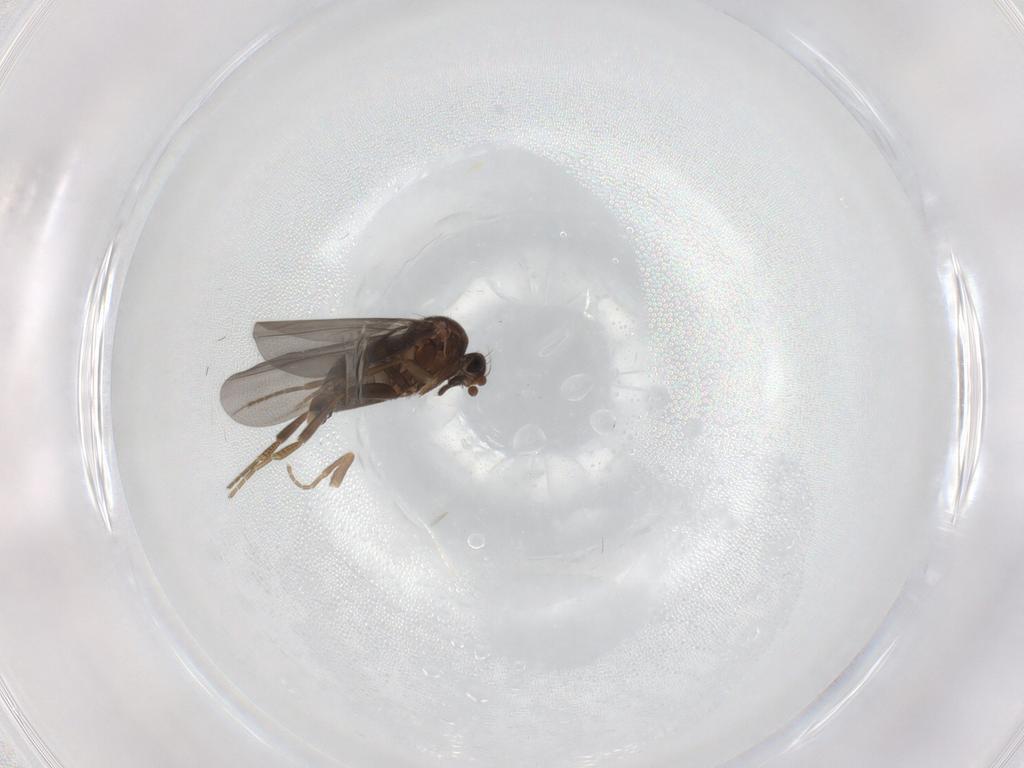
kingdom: Animalia
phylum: Arthropoda
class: Insecta
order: Diptera
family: Phoridae
